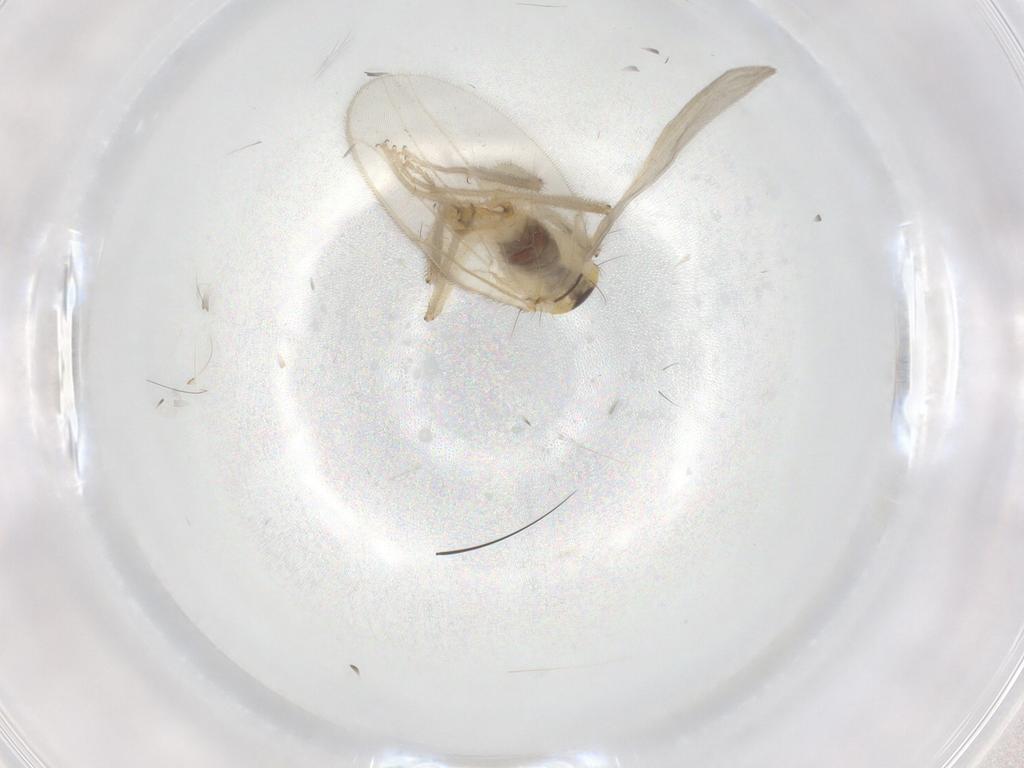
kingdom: Animalia
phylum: Arthropoda
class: Insecta
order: Diptera
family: Hybotidae
